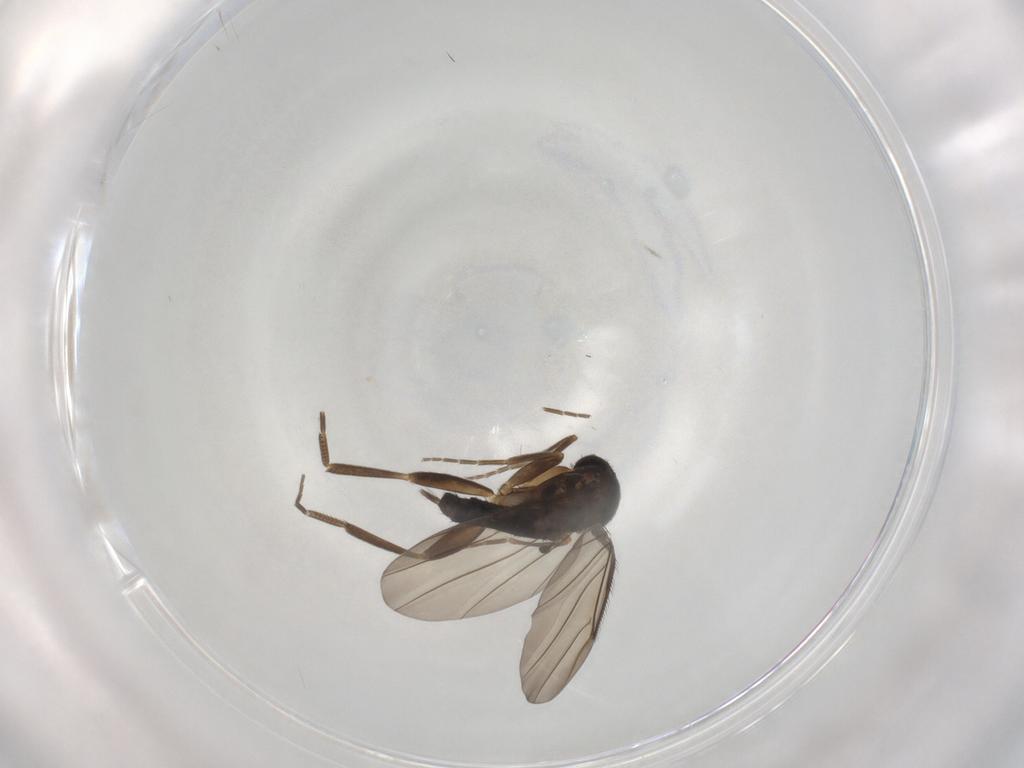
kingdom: Animalia
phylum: Arthropoda
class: Insecta
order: Diptera
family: Chironomidae
